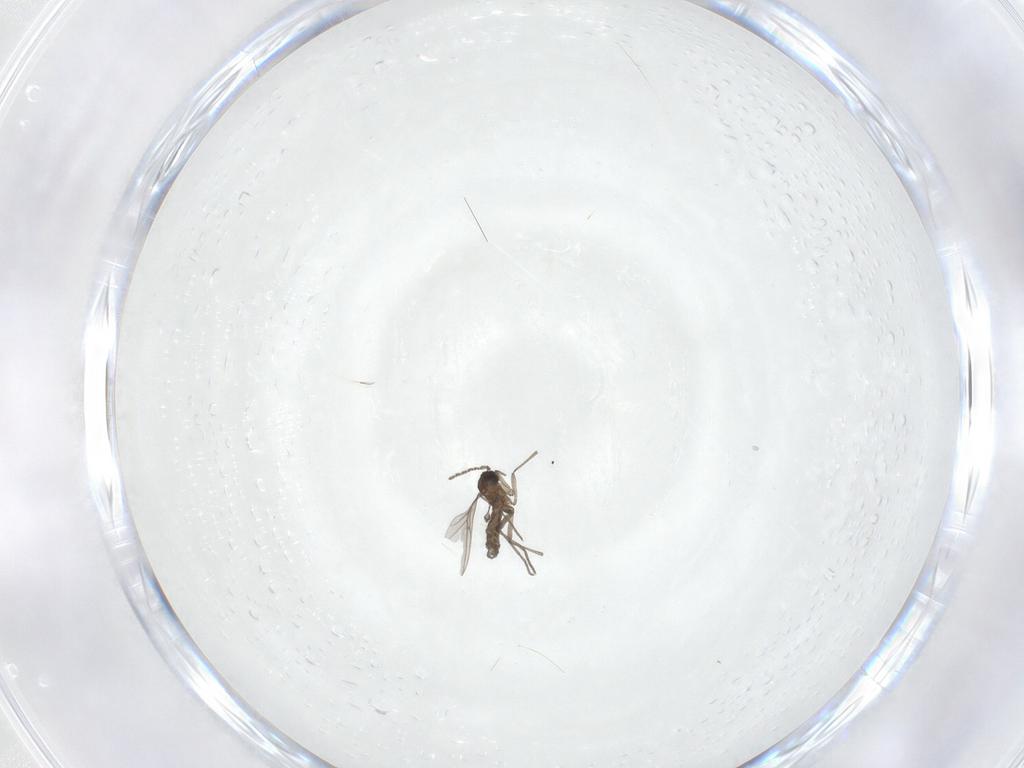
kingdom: Animalia
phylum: Arthropoda
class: Insecta
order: Diptera
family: Sciaridae
